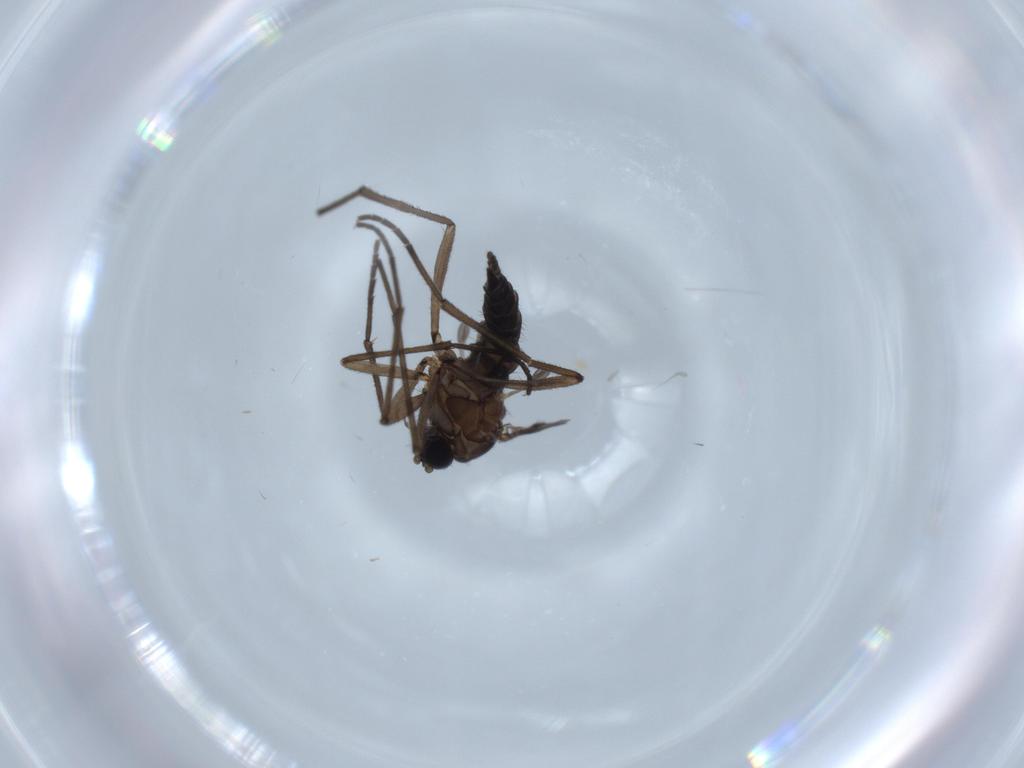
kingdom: Animalia
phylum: Arthropoda
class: Insecta
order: Diptera
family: Sciaridae
